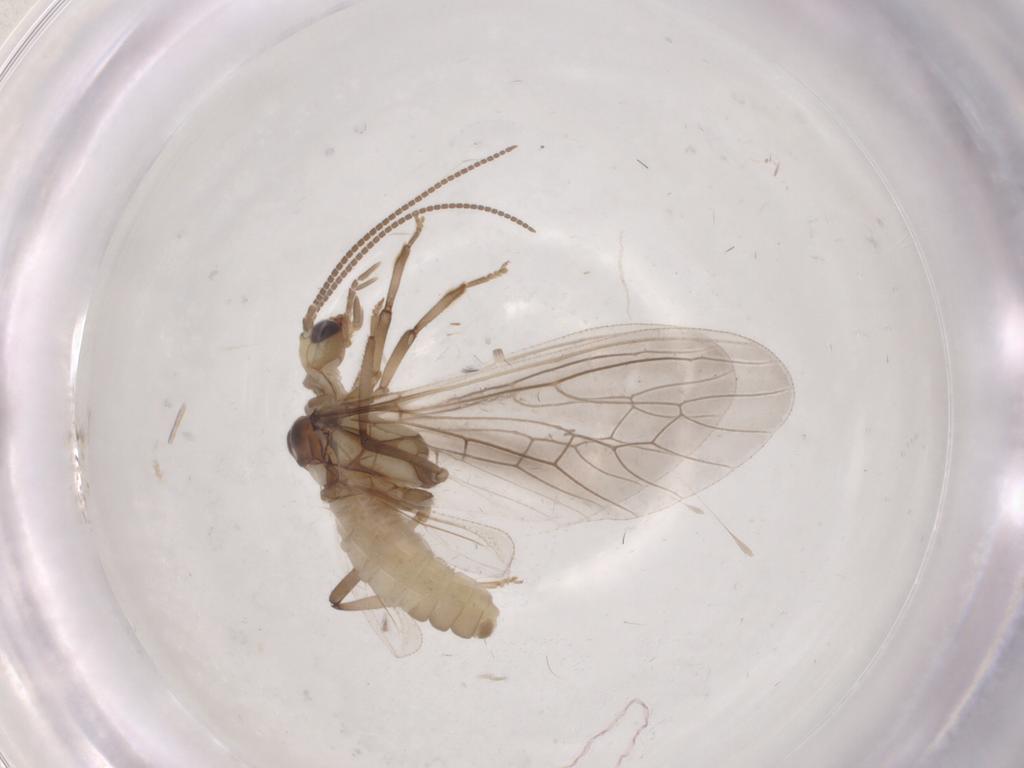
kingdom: Animalia
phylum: Arthropoda
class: Insecta
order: Neuroptera
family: Coniopterygidae
